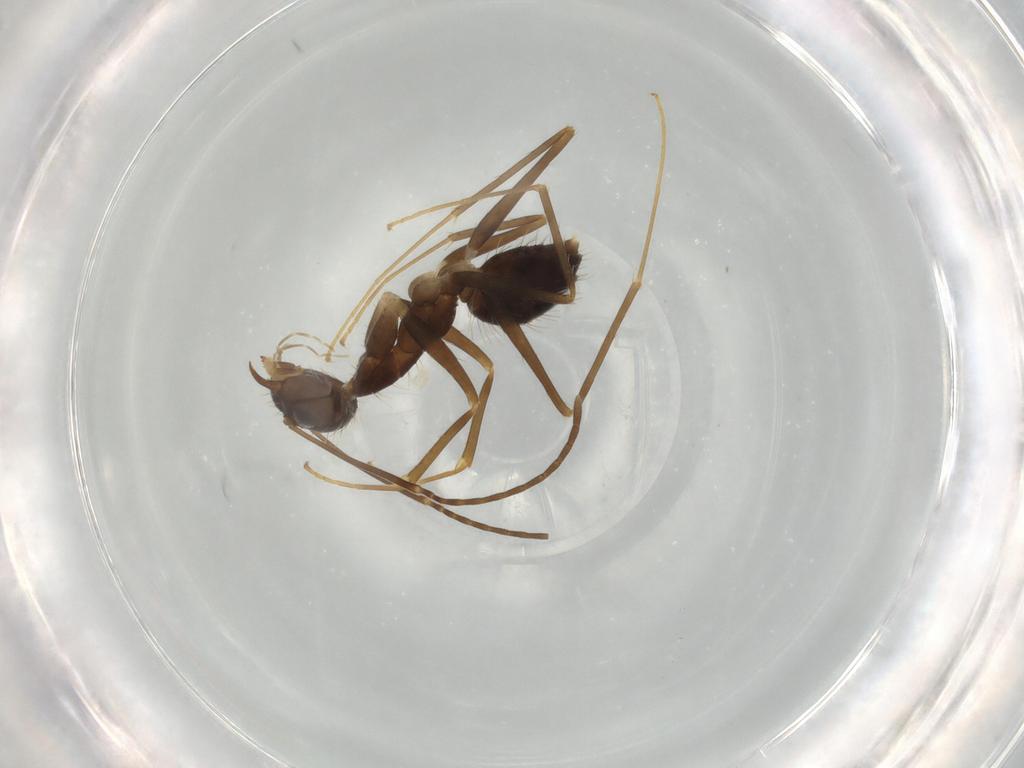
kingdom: Animalia
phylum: Arthropoda
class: Insecta
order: Hymenoptera
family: Formicidae
